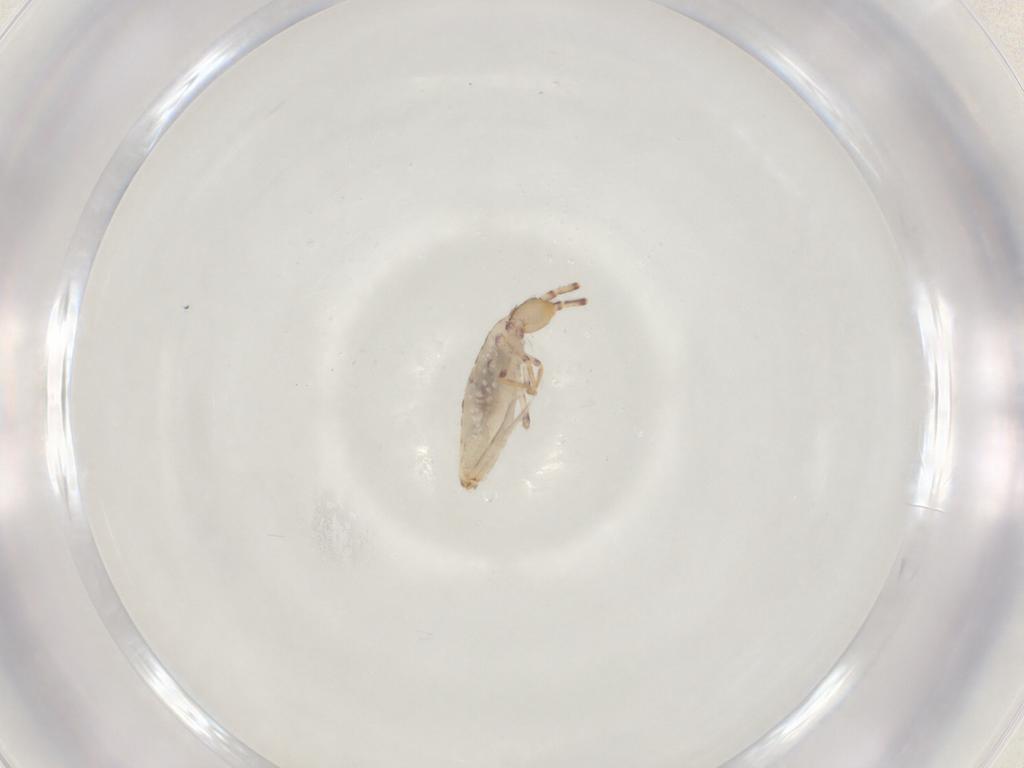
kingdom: Animalia
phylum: Arthropoda
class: Collembola
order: Entomobryomorpha
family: Entomobryidae
